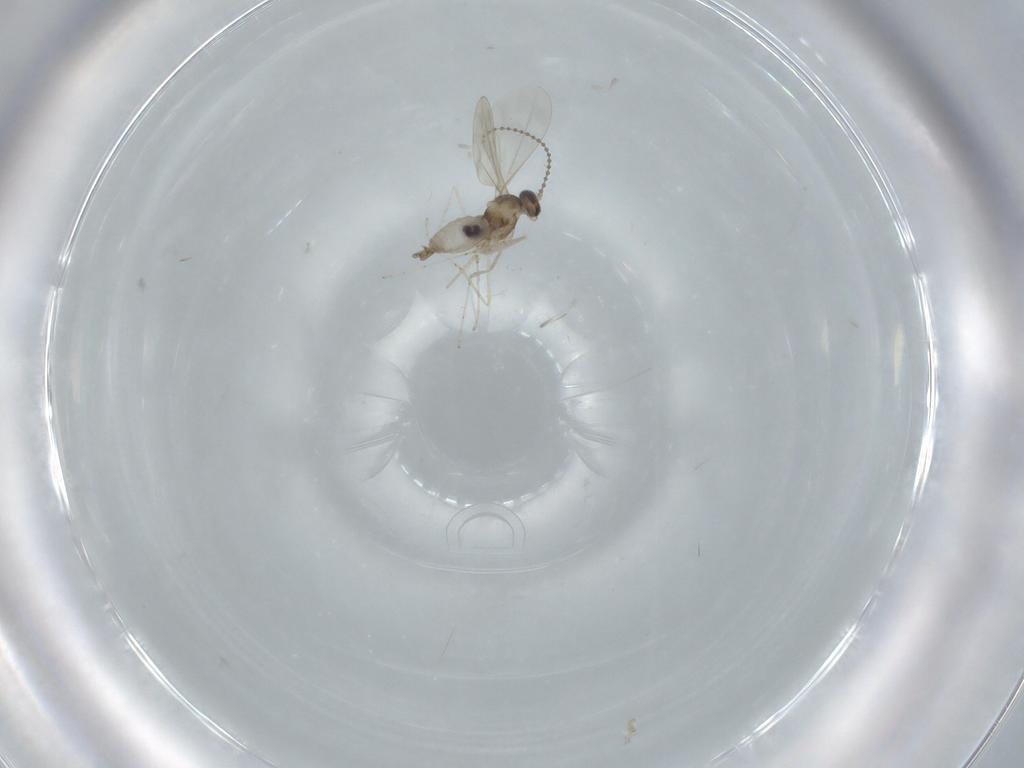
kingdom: Animalia
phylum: Arthropoda
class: Insecta
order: Diptera
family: Cecidomyiidae
